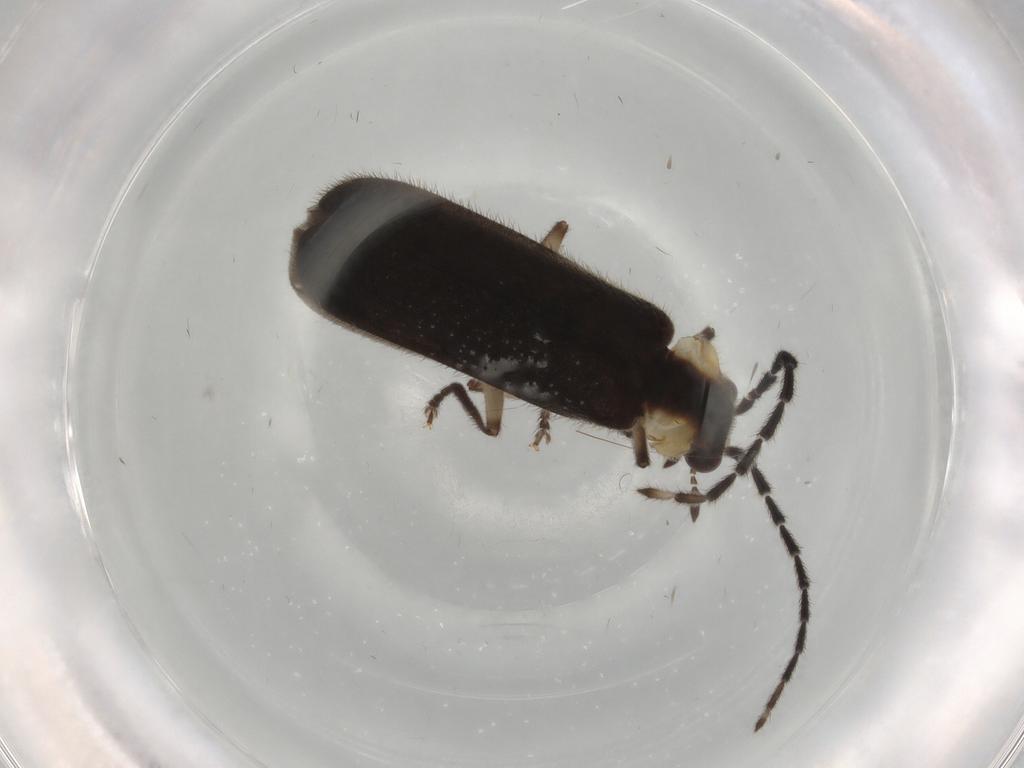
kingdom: Animalia
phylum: Arthropoda
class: Insecta
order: Coleoptera
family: Cantharidae
